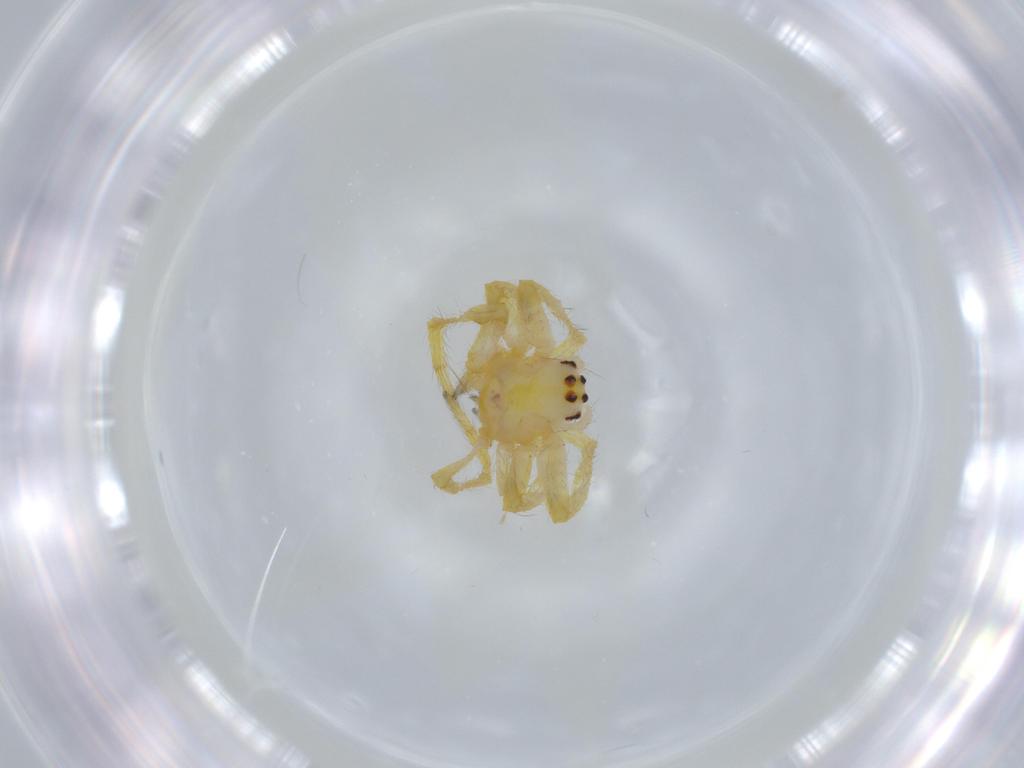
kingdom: Animalia
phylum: Arthropoda
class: Arachnida
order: Araneae
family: Araneidae
